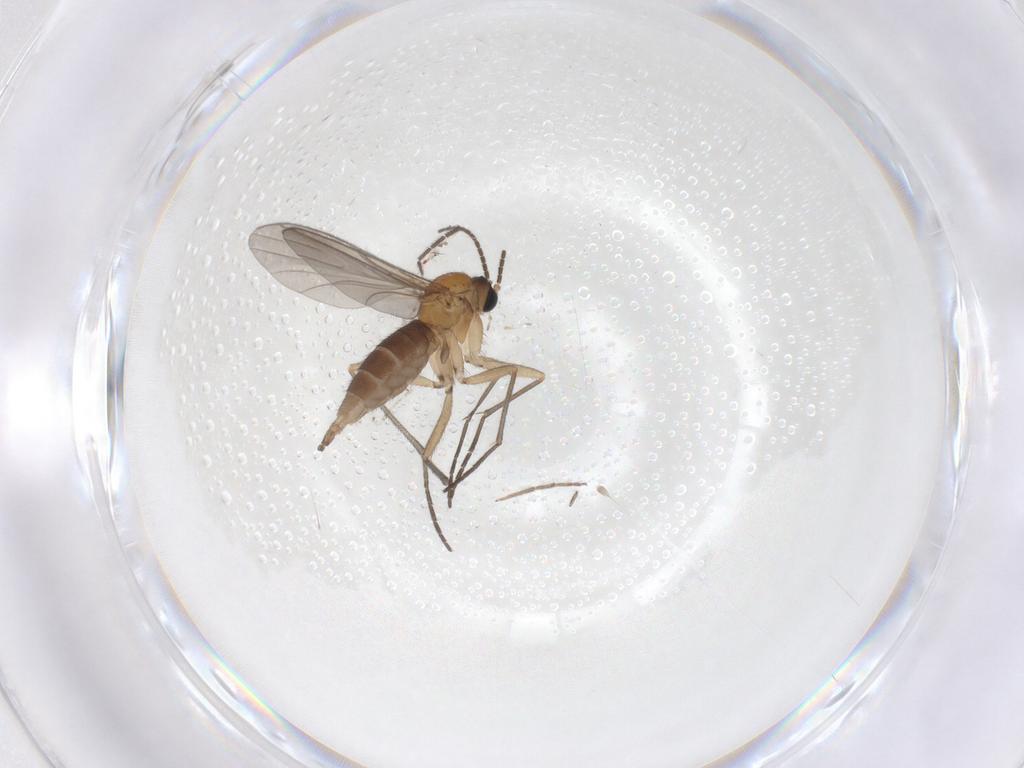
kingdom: Animalia
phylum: Arthropoda
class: Insecta
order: Diptera
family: Sciaridae
